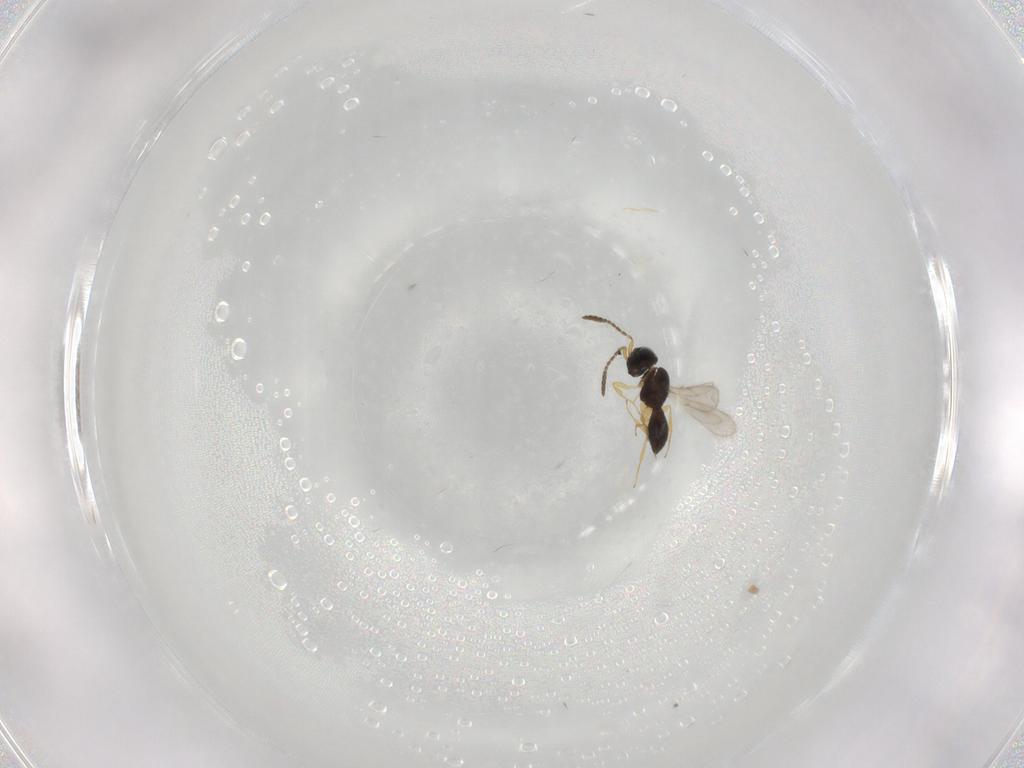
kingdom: Animalia
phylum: Arthropoda
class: Insecta
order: Hymenoptera
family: Scelionidae
